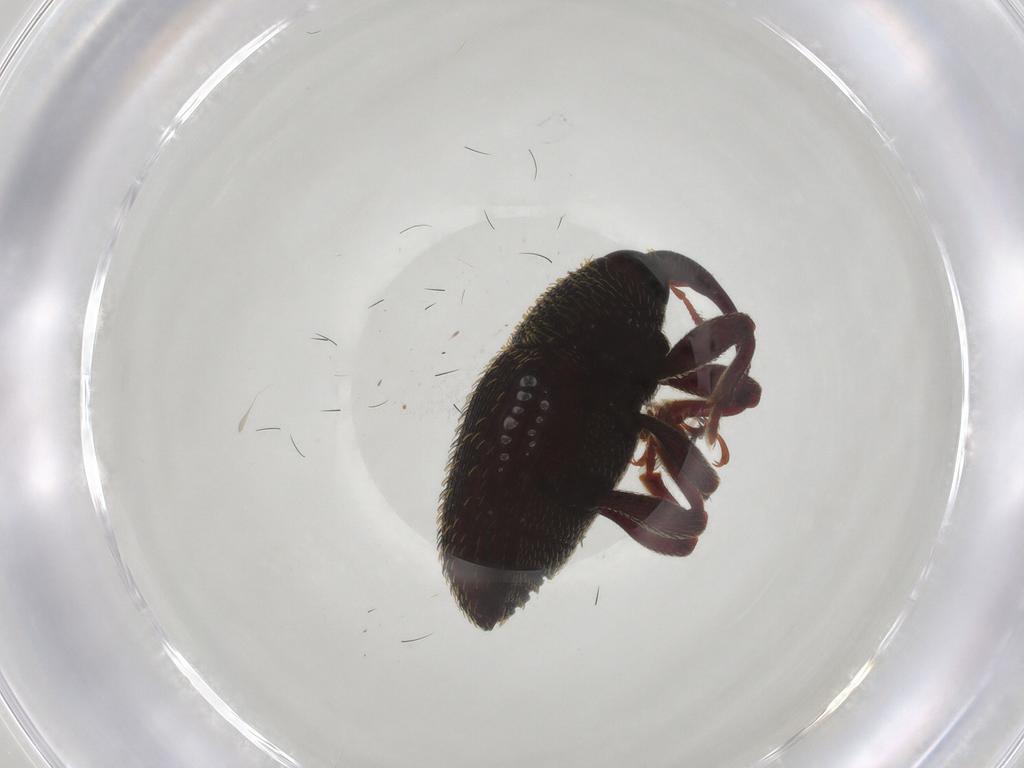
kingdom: Animalia
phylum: Arthropoda
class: Insecta
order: Coleoptera
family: Curculionidae
